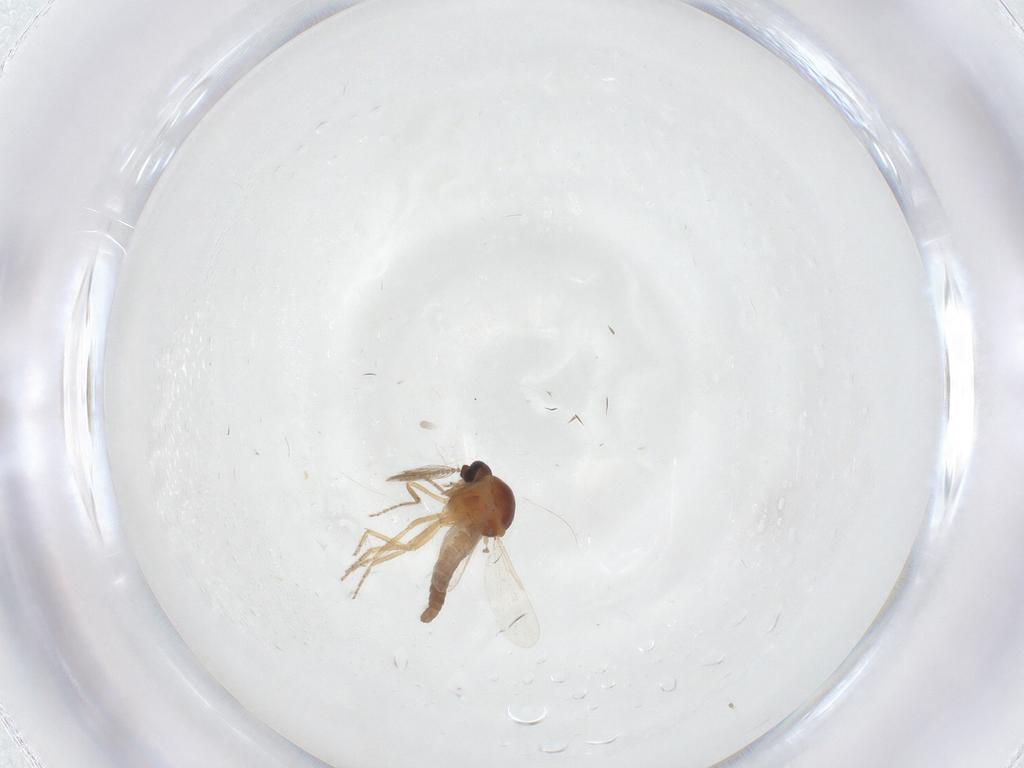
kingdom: Animalia
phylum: Arthropoda
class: Insecta
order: Diptera
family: Ceratopogonidae
